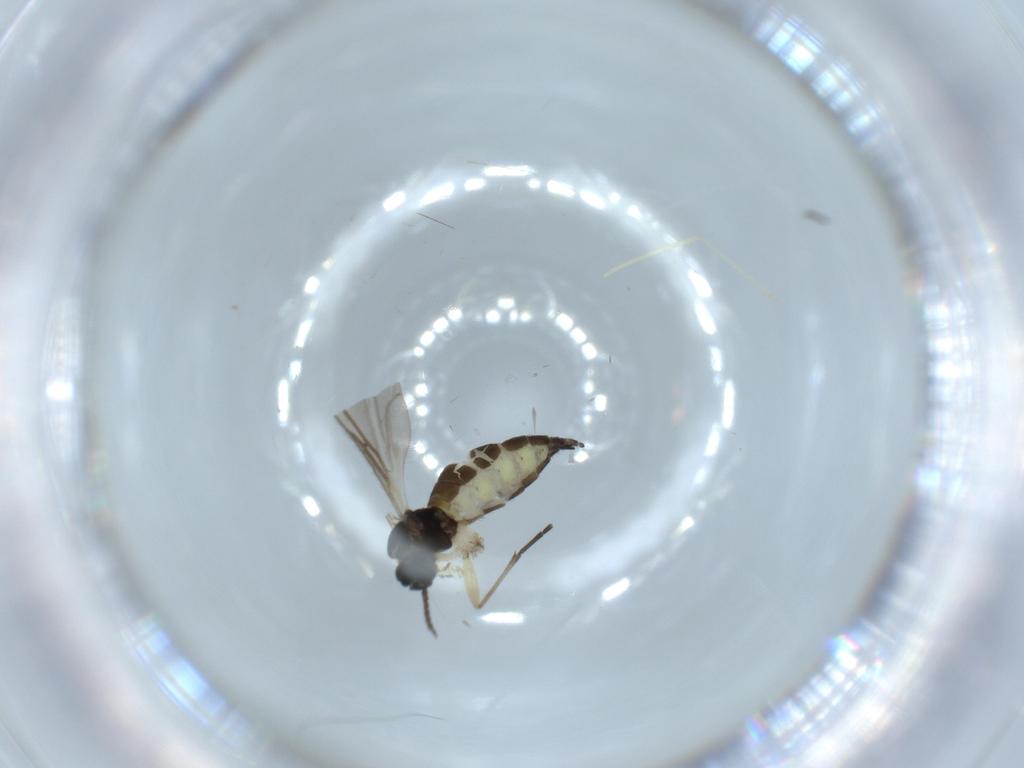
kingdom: Animalia
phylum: Arthropoda
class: Insecta
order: Diptera
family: Sciaridae
